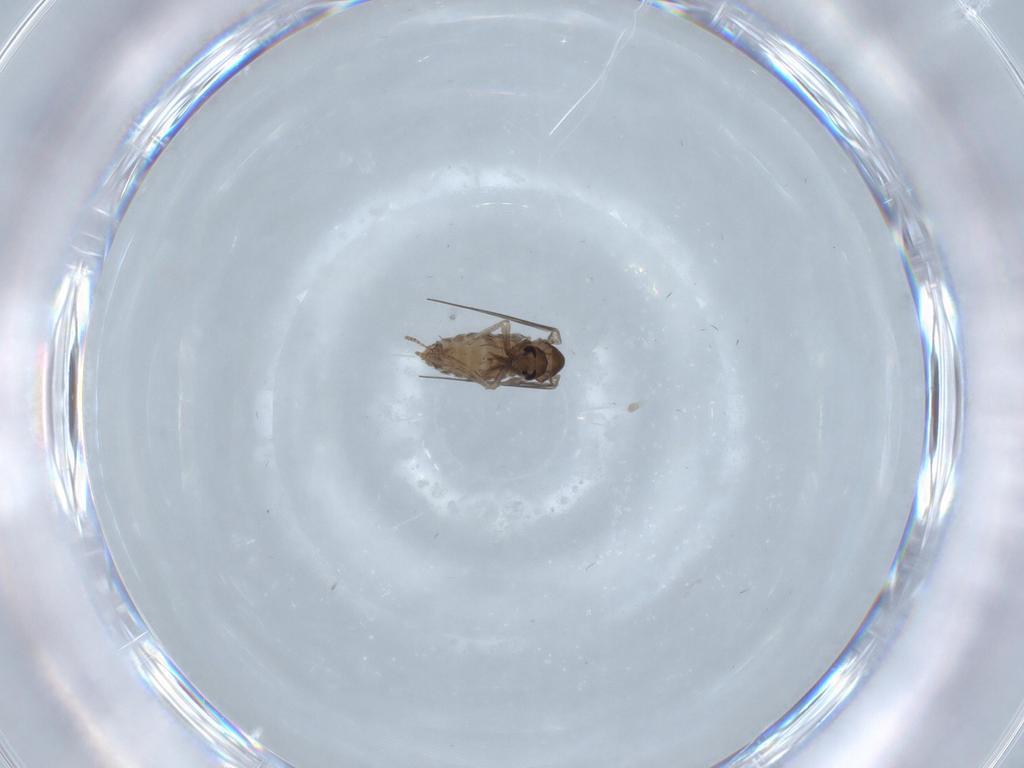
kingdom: Animalia
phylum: Arthropoda
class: Insecta
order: Diptera
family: Psychodidae
